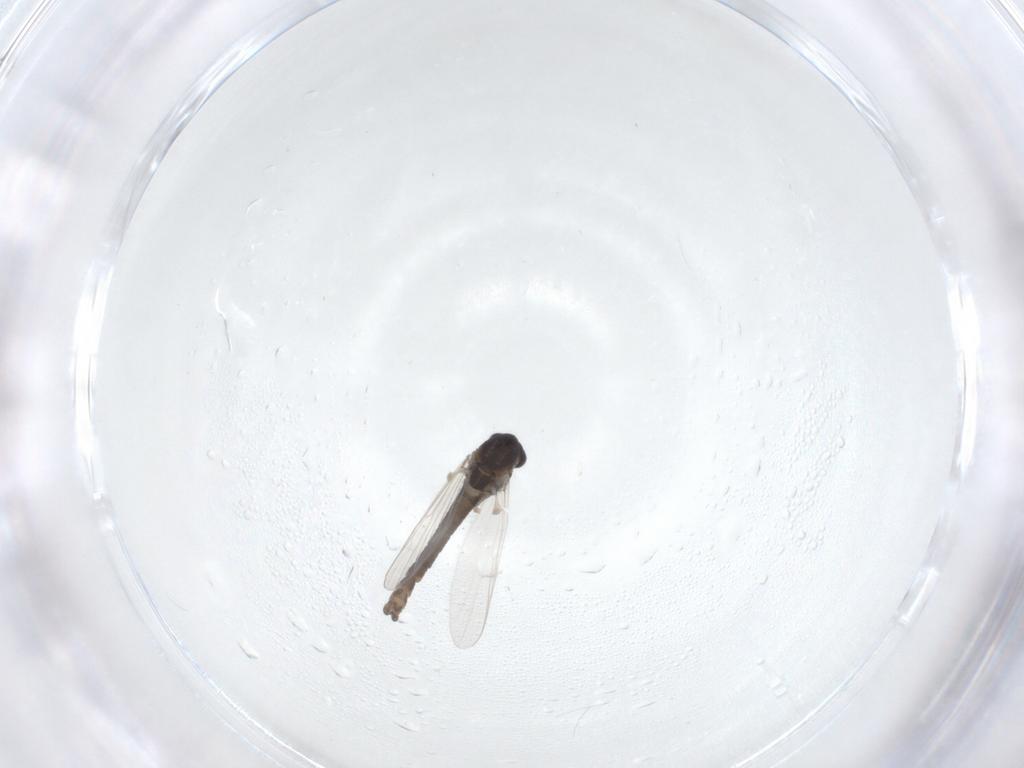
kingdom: Animalia
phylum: Arthropoda
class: Insecta
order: Diptera
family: Chironomidae
